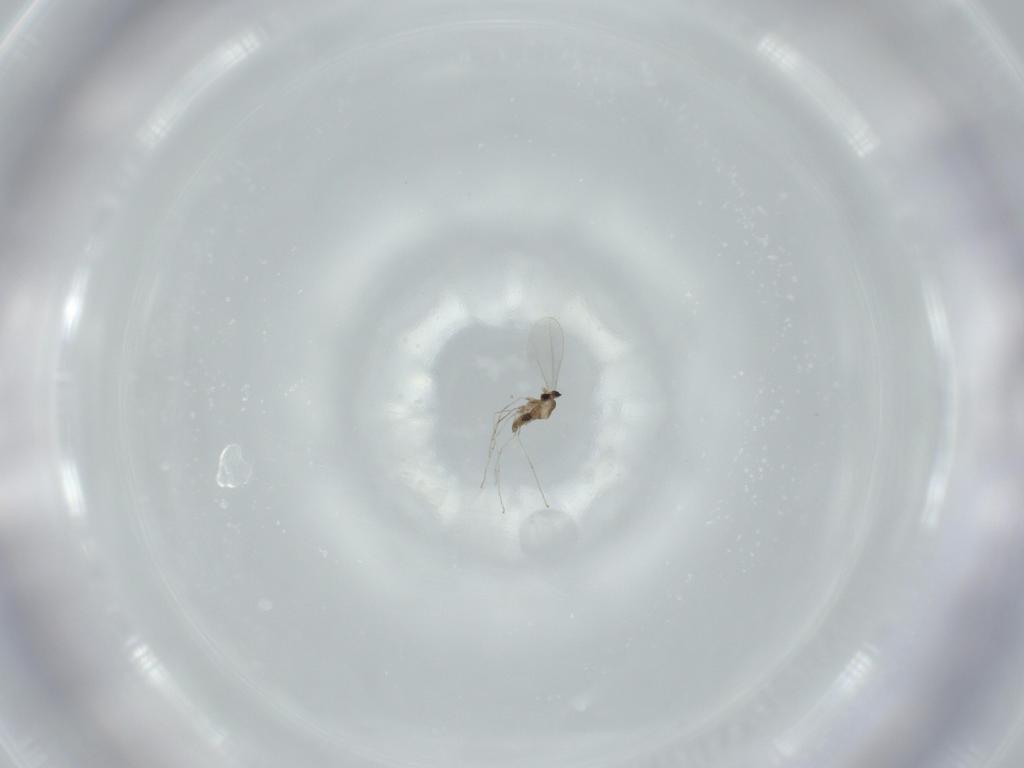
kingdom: Animalia
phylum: Arthropoda
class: Insecta
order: Diptera
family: Cecidomyiidae
